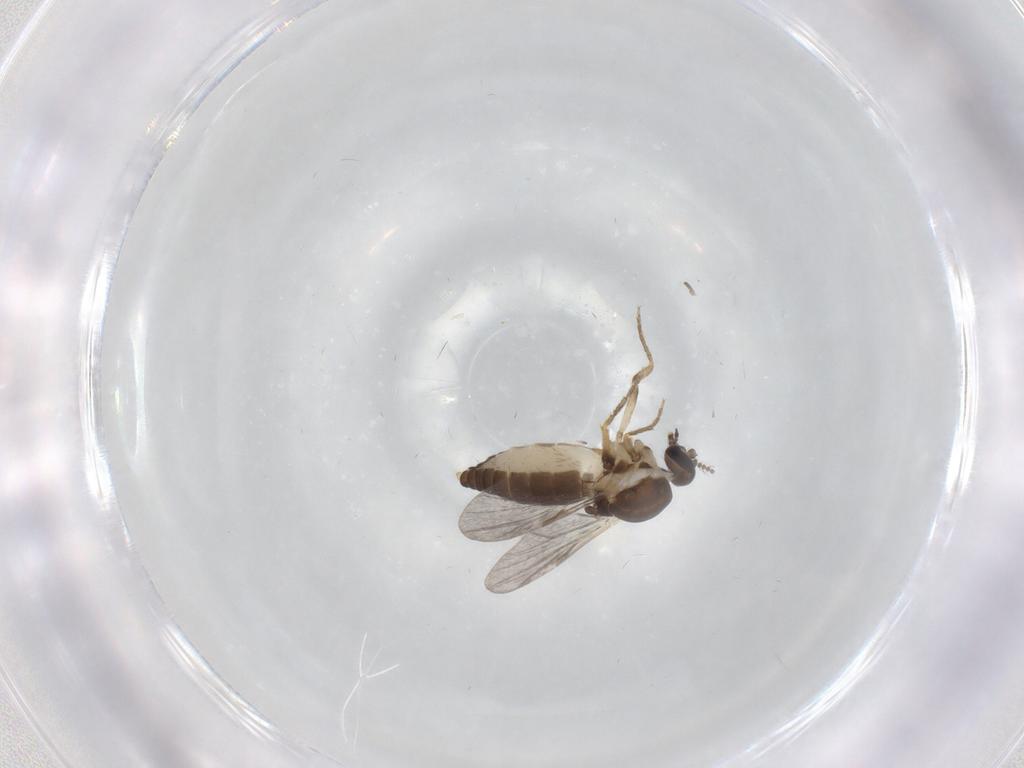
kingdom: Animalia
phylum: Arthropoda
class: Insecta
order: Diptera
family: Ceratopogonidae
